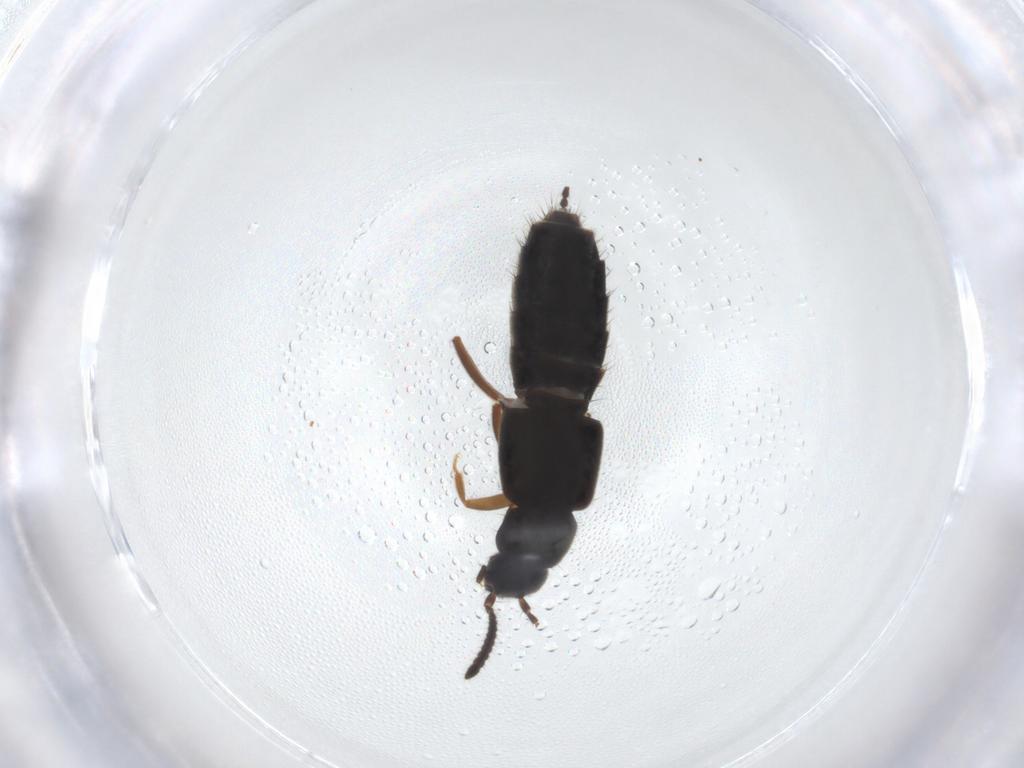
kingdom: Animalia
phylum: Arthropoda
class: Insecta
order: Coleoptera
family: Staphylinidae
